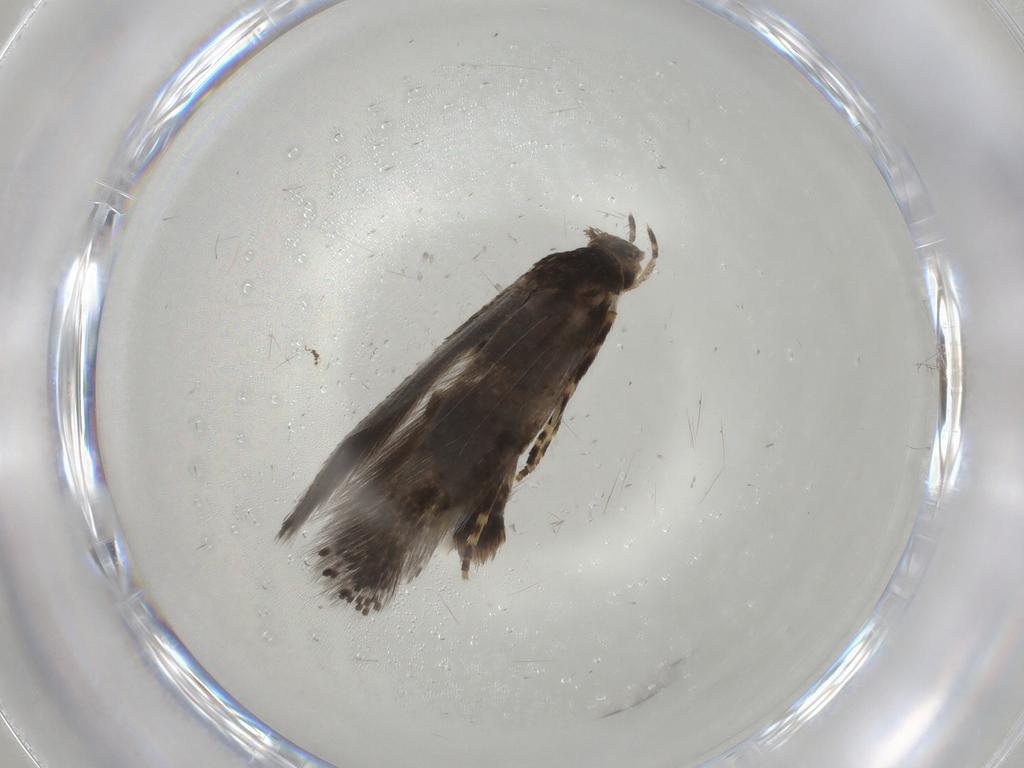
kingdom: Animalia
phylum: Arthropoda
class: Insecta
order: Lepidoptera
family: Elachistidae
